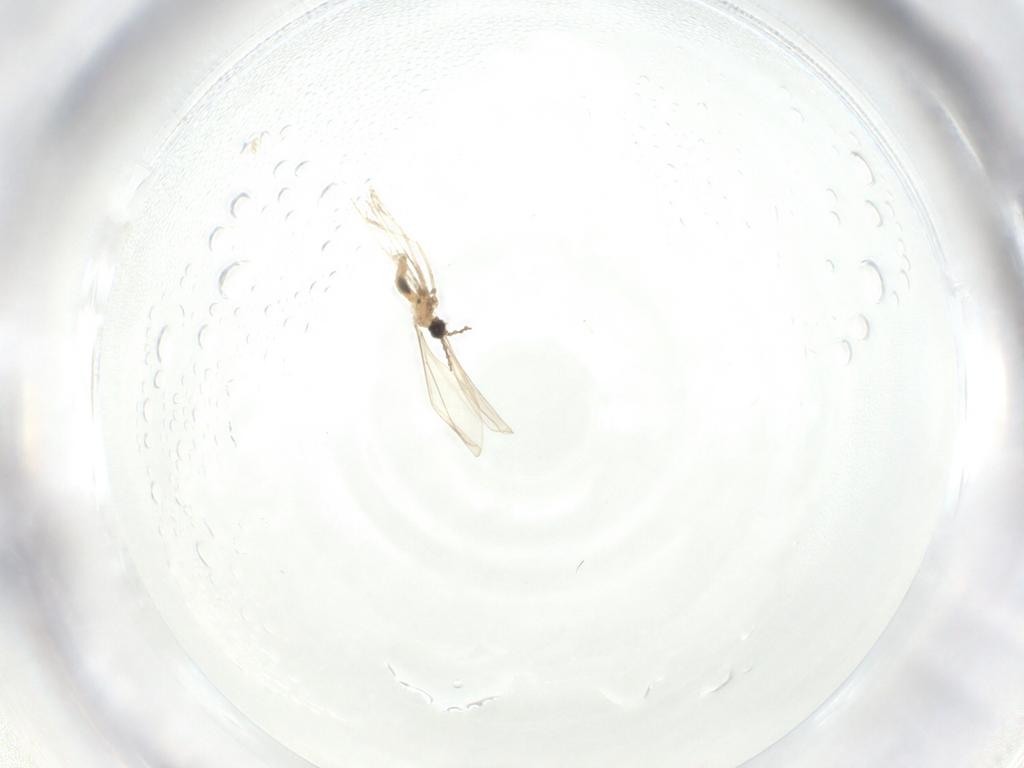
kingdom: Animalia
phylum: Arthropoda
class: Insecta
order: Diptera
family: Cecidomyiidae
